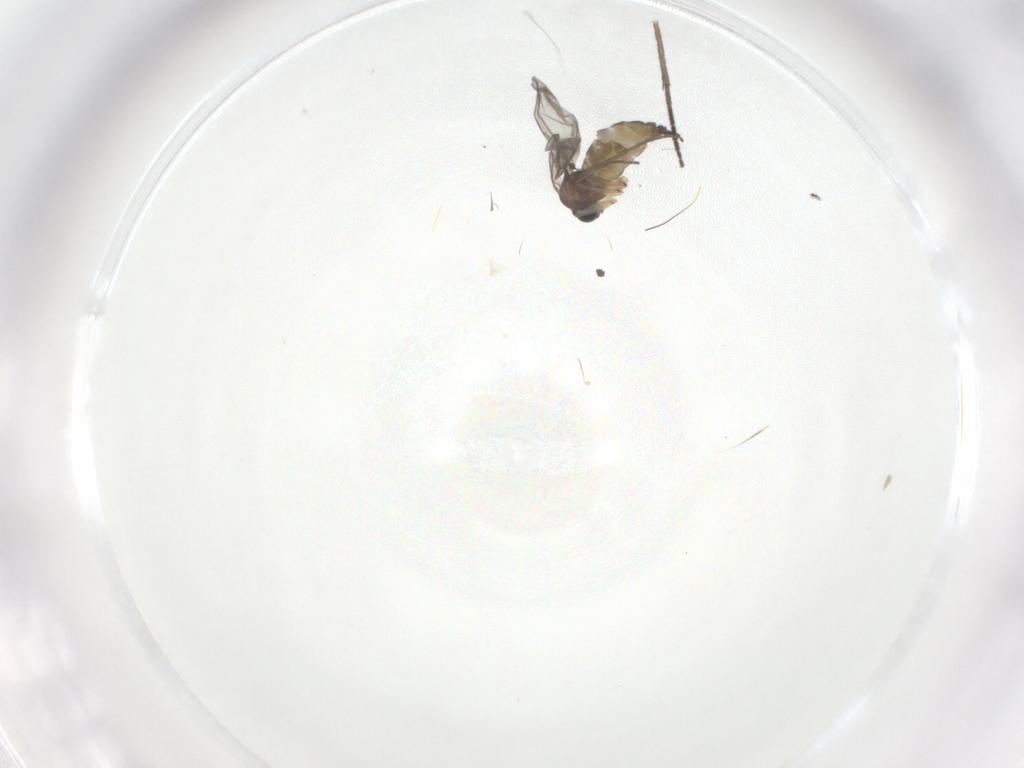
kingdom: Animalia
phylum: Arthropoda
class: Insecta
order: Diptera
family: Sciaridae
